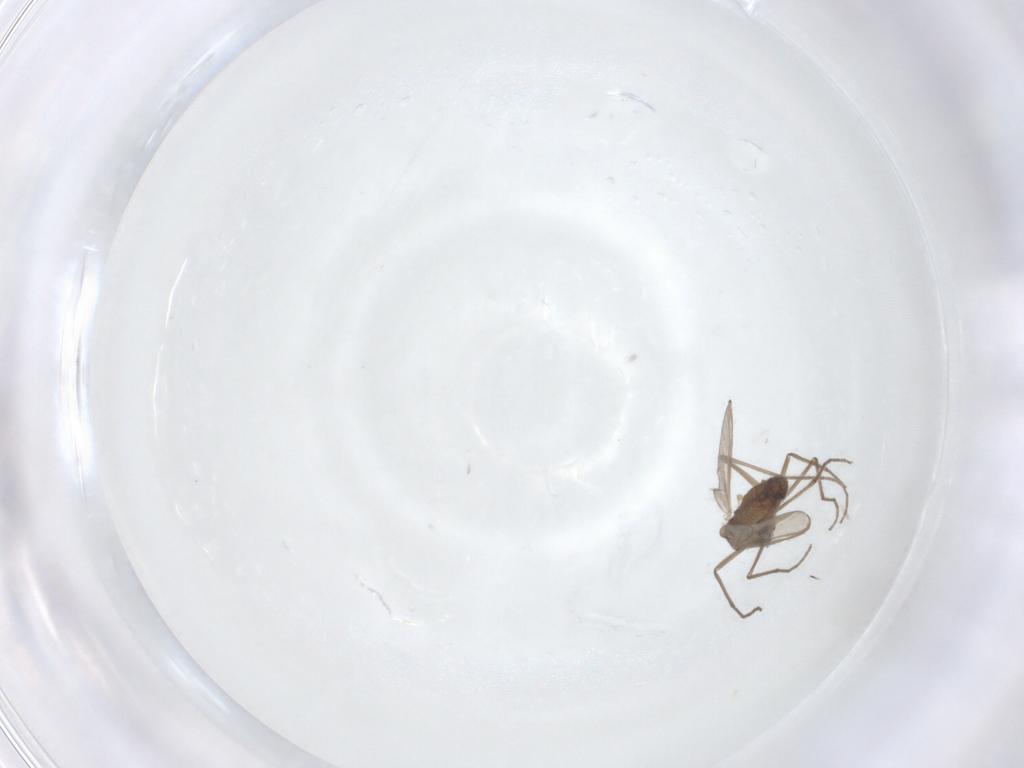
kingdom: Animalia
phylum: Arthropoda
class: Insecta
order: Diptera
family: Chironomidae
